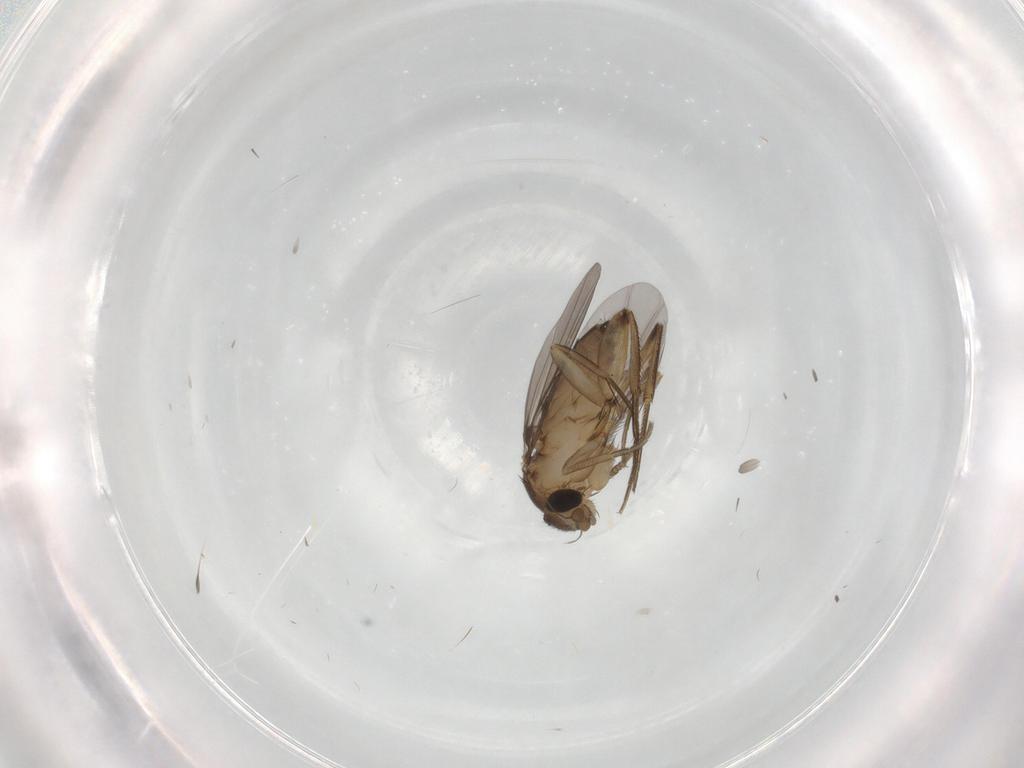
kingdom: Animalia
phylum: Arthropoda
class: Insecta
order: Diptera
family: Phoridae
